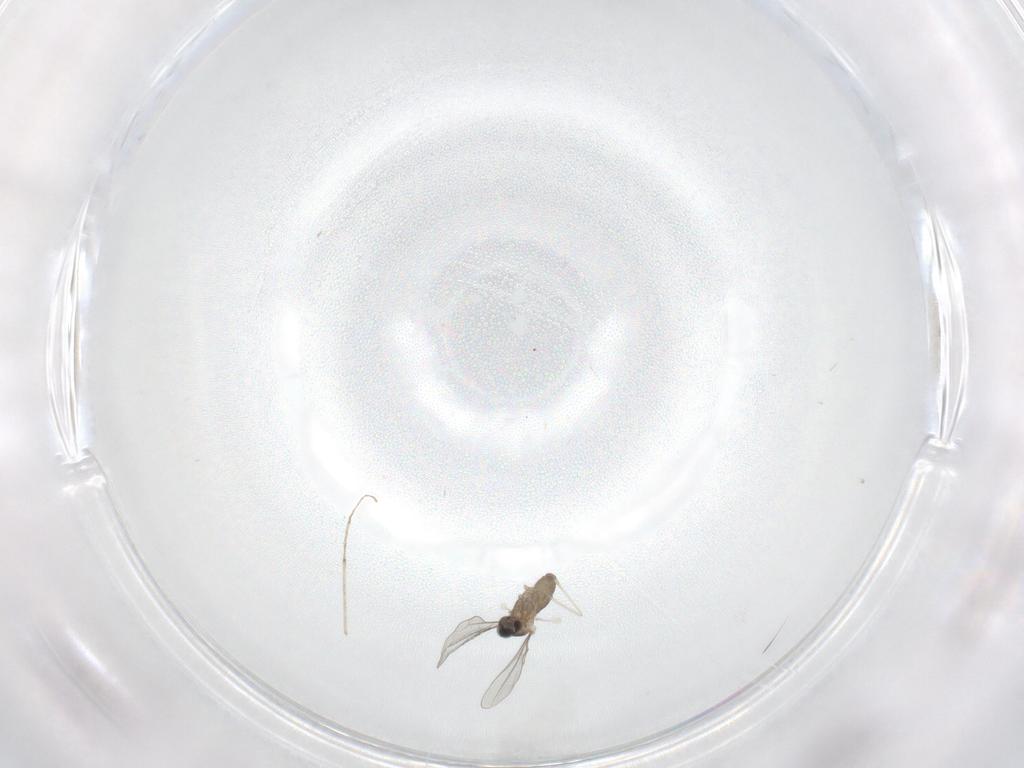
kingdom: Animalia
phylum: Arthropoda
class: Insecta
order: Diptera
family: Cecidomyiidae
